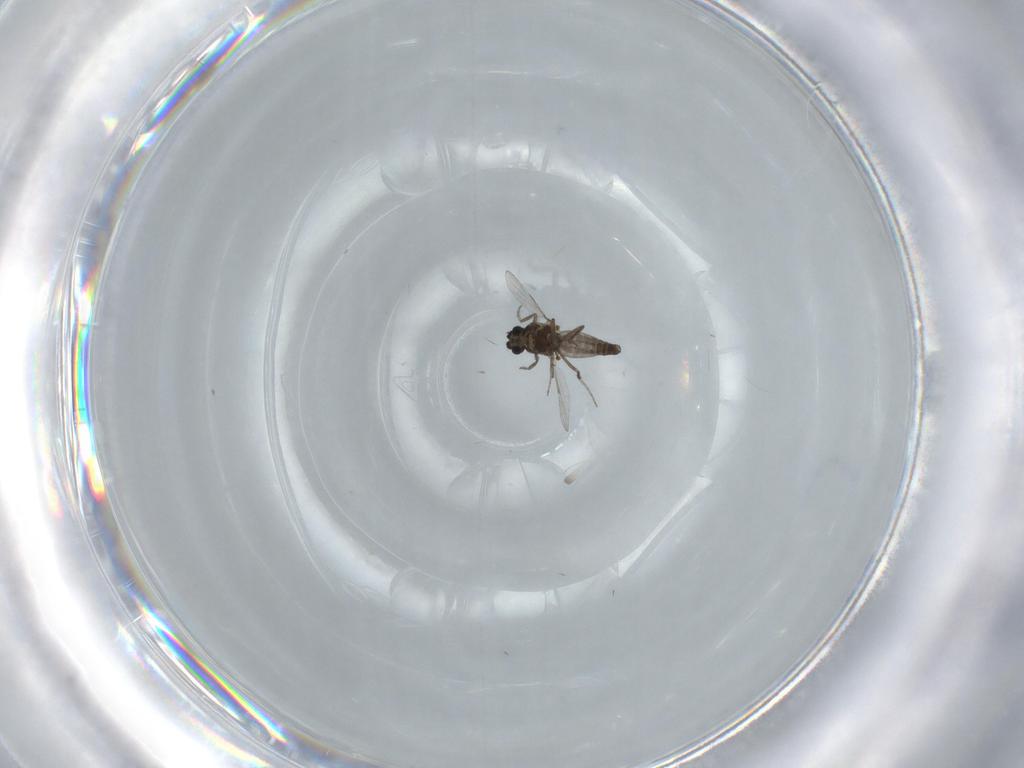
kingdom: Animalia
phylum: Arthropoda
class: Insecta
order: Diptera
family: Ceratopogonidae
